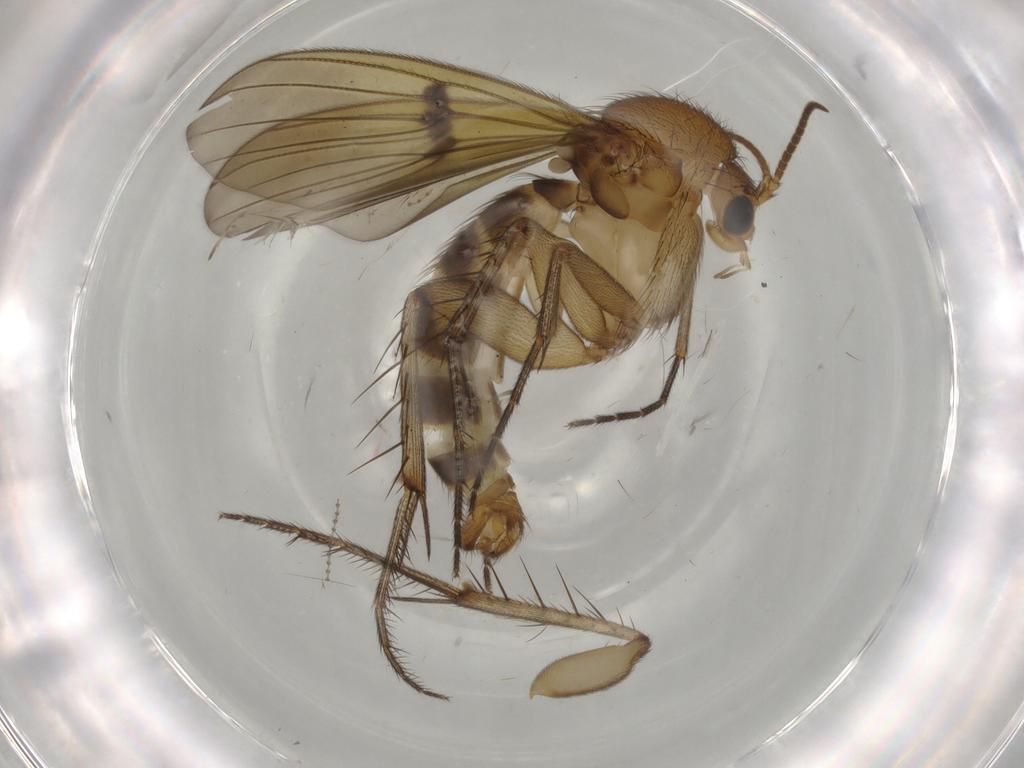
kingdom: Animalia
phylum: Arthropoda
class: Insecta
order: Diptera
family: Mycetophilidae
